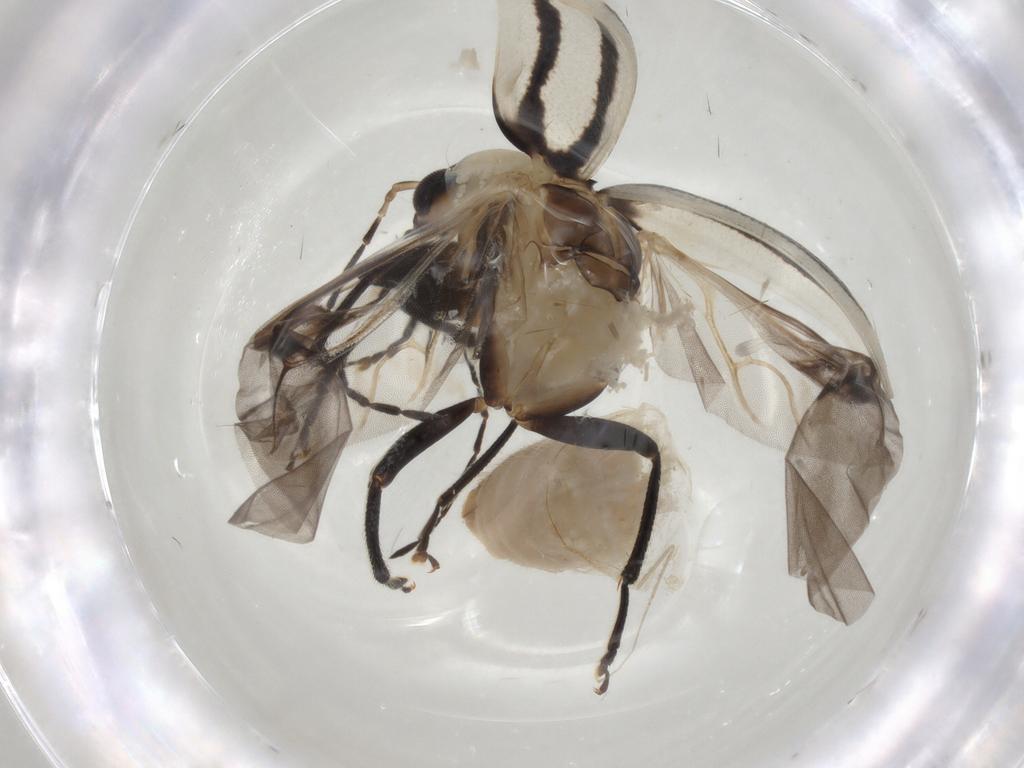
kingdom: Animalia
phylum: Arthropoda
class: Insecta
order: Coleoptera
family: Chrysomelidae
